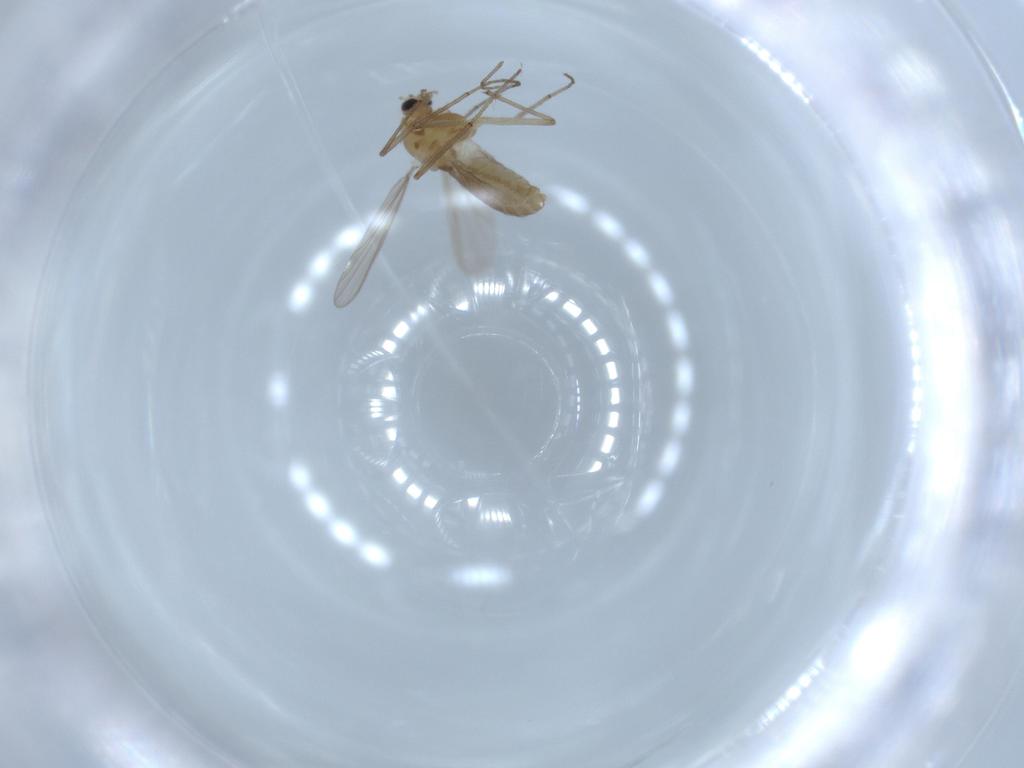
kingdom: Animalia
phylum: Arthropoda
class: Insecta
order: Diptera
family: Chironomidae
